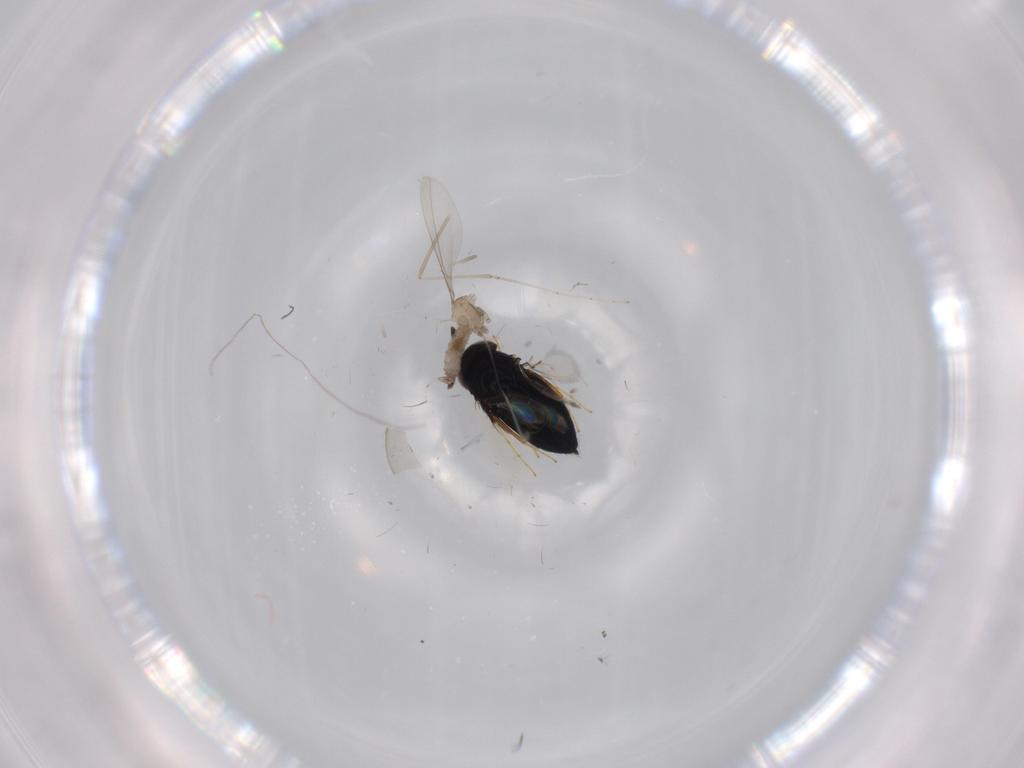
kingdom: Animalia
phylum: Arthropoda
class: Insecta
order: Diptera
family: Cecidomyiidae
